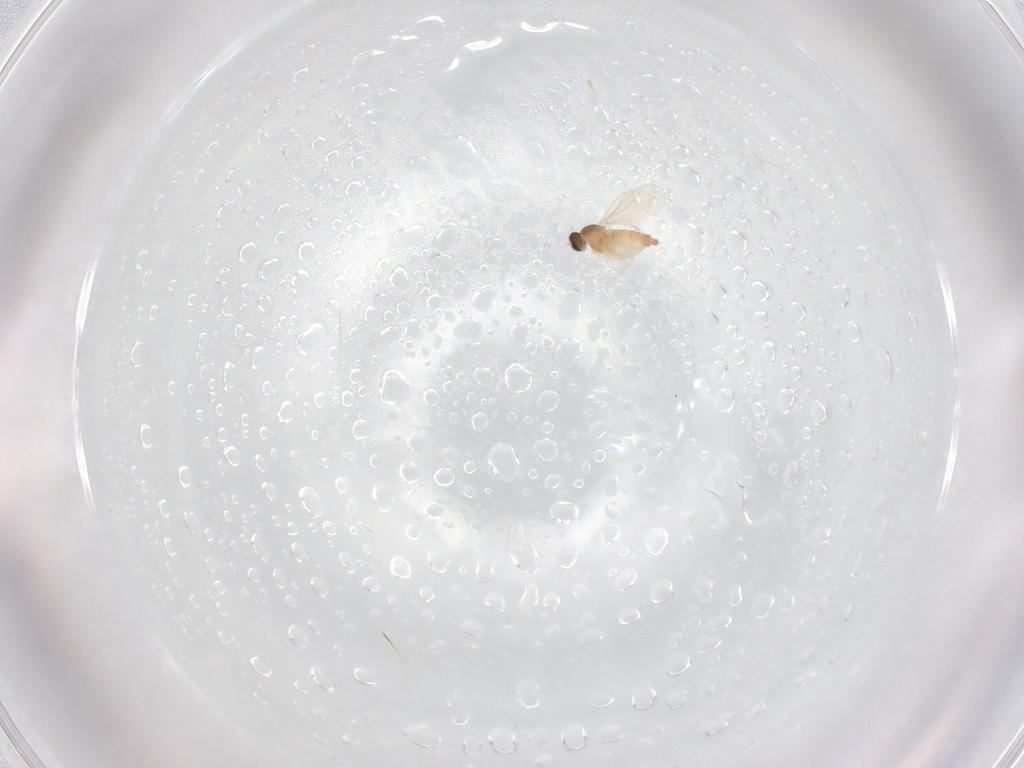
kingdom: Animalia
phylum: Arthropoda
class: Insecta
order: Diptera
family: Cecidomyiidae
